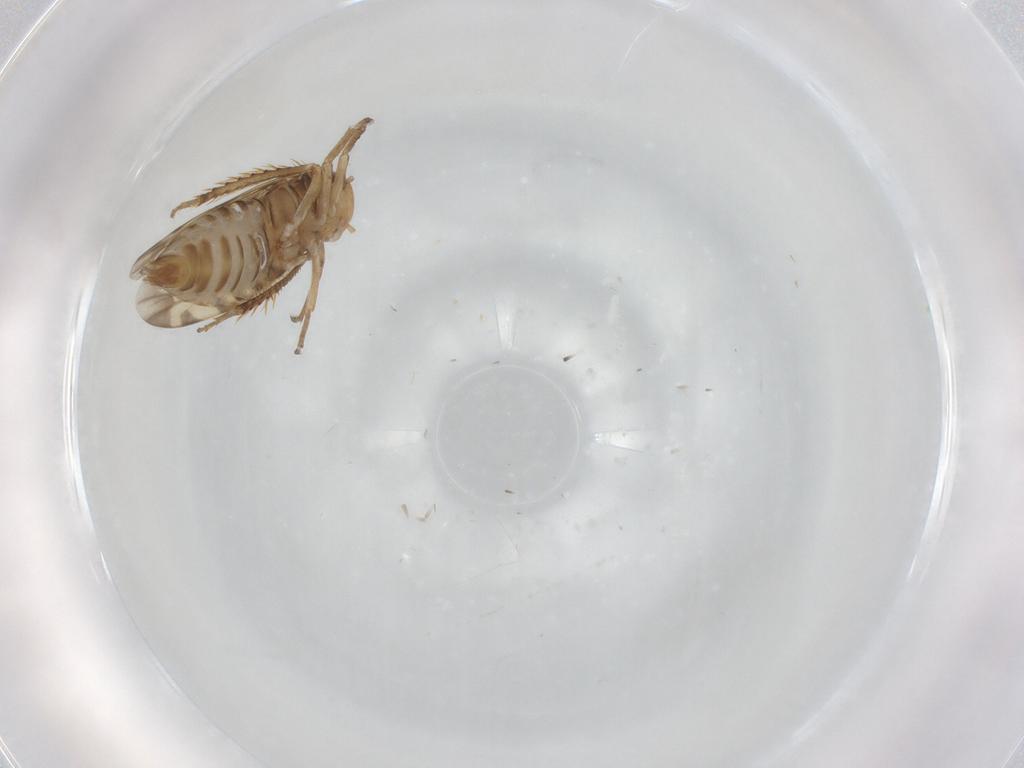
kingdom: Animalia
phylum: Arthropoda
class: Insecta
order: Hemiptera
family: Cicadellidae
